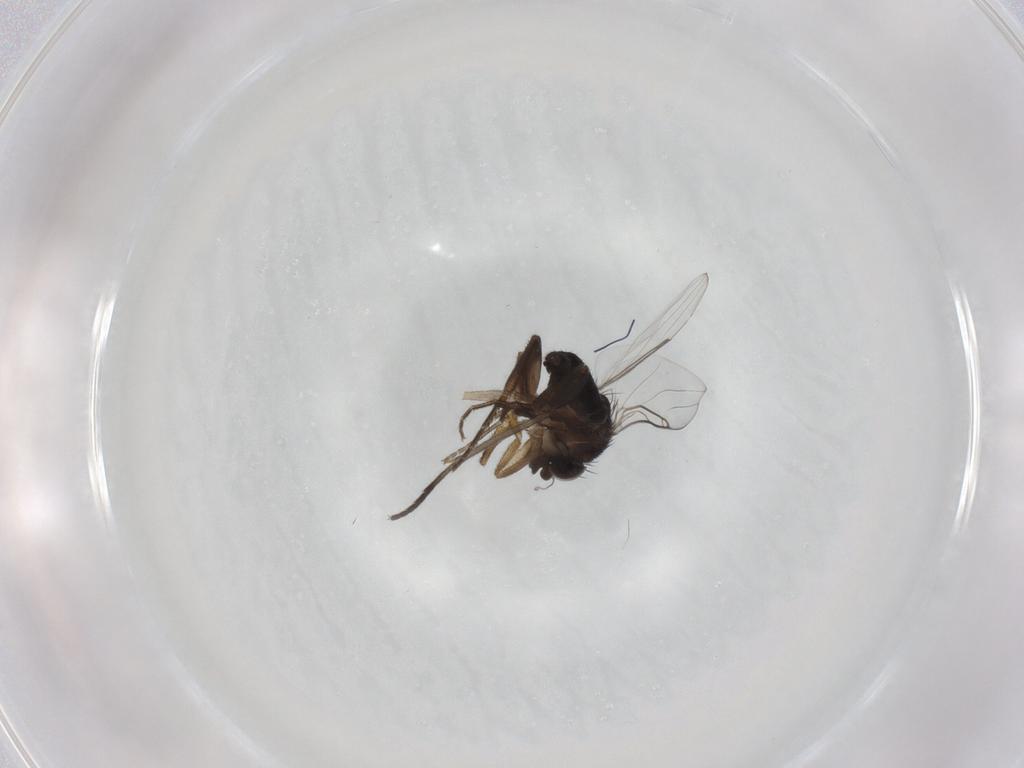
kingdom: Animalia
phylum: Arthropoda
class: Insecta
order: Diptera
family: Phoridae
